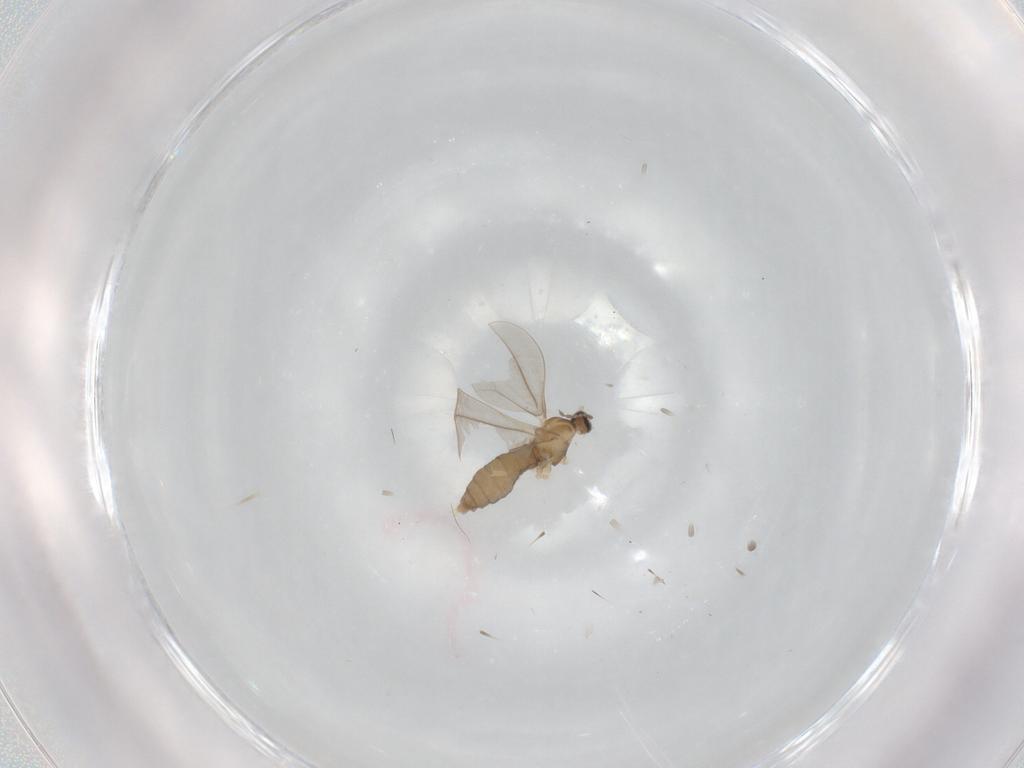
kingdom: Animalia
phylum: Arthropoda
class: Insecta
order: Diptera
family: Cecidomyiidae
